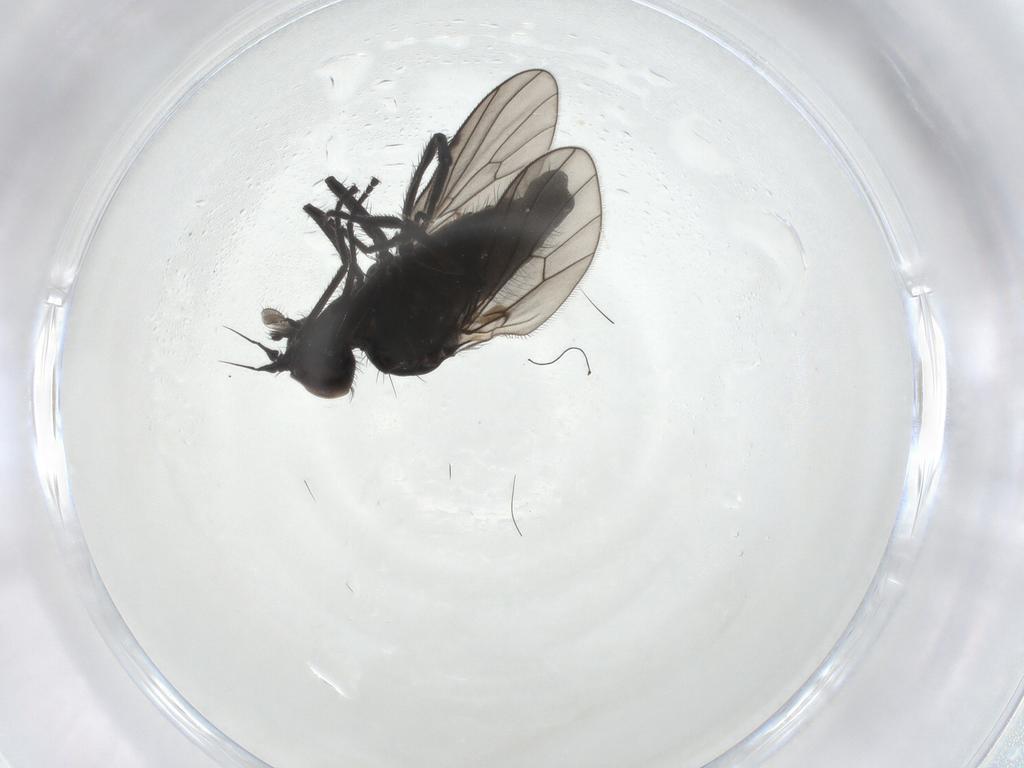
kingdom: Animalia
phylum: Arthropoda
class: Insecta
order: Diptera
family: Dolichopodidae
